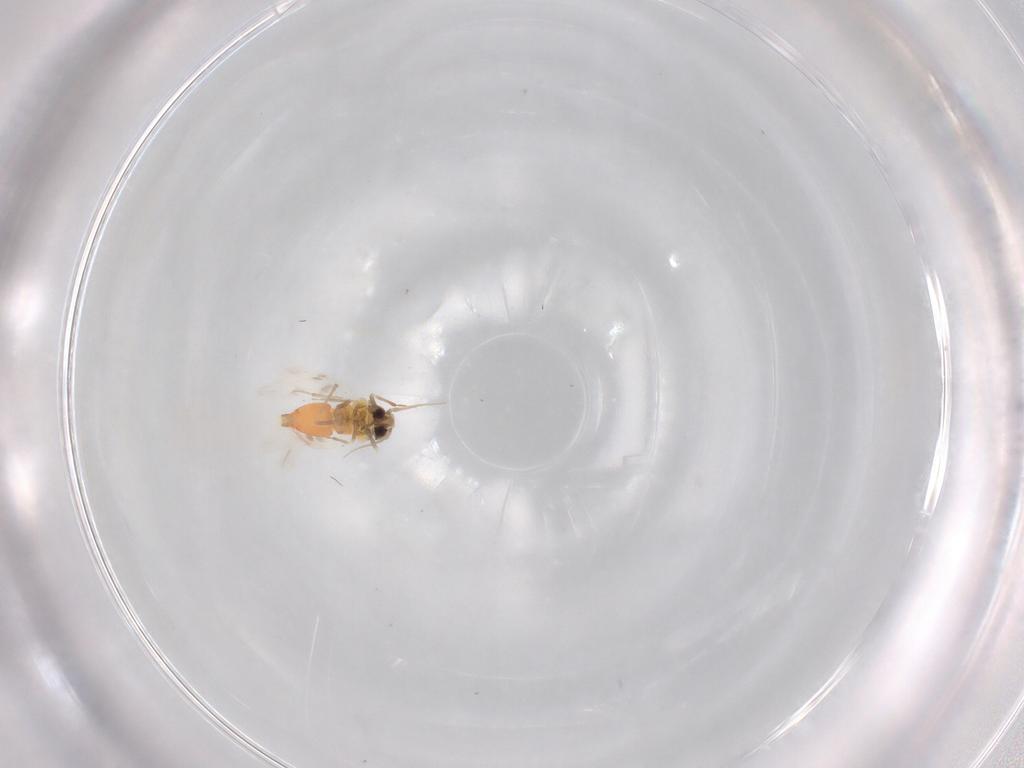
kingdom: Animalia
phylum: Arthropoda
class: Insecta
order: Hemiptera
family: Aleyrodidae
